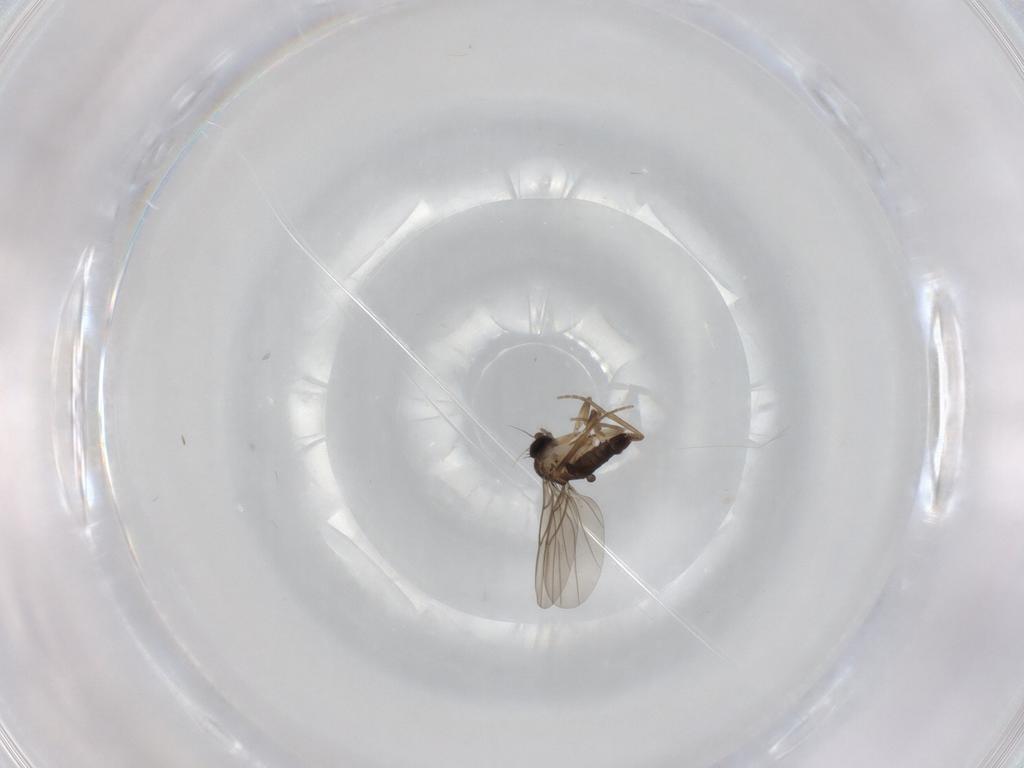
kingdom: Animalia
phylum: Arthropoda
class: Insecta
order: Diptera
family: Phoridae
